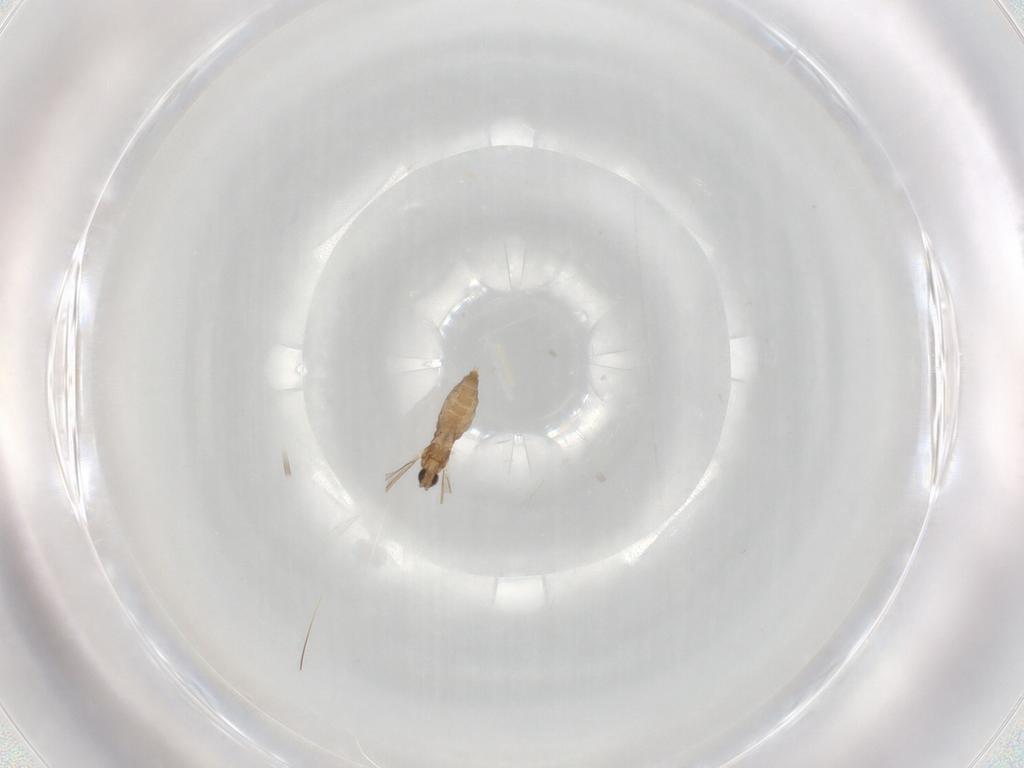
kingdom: Animalia
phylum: Arthropoda
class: Insecta
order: Diptera
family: Cecidomyiidae
